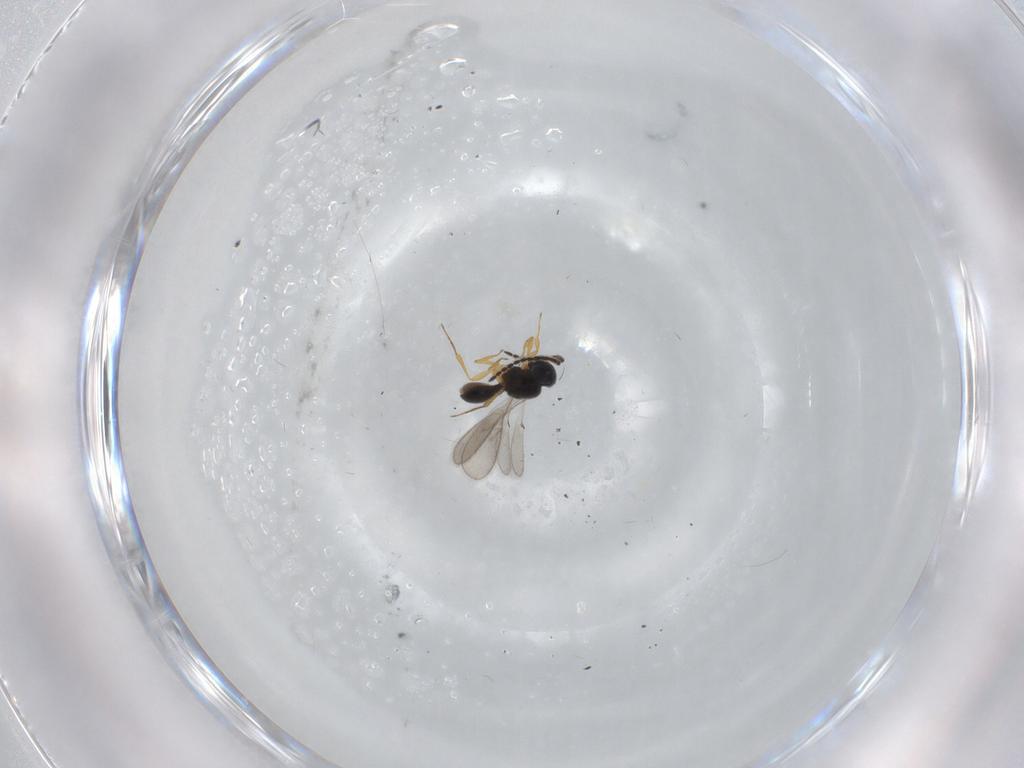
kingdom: Animalia
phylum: Arthropoda
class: Insecta
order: Hymenoptera
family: Scelionidae
